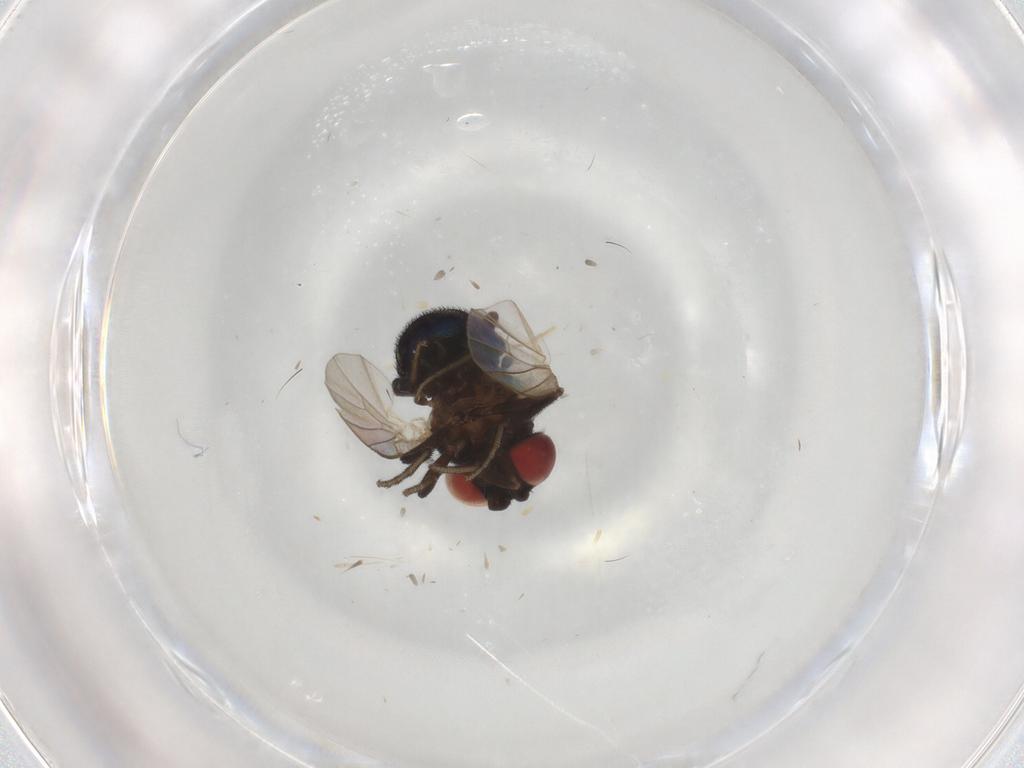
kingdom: Animalia
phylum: Arthropoda
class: Insecta
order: Diptera
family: Cryptochetidae
